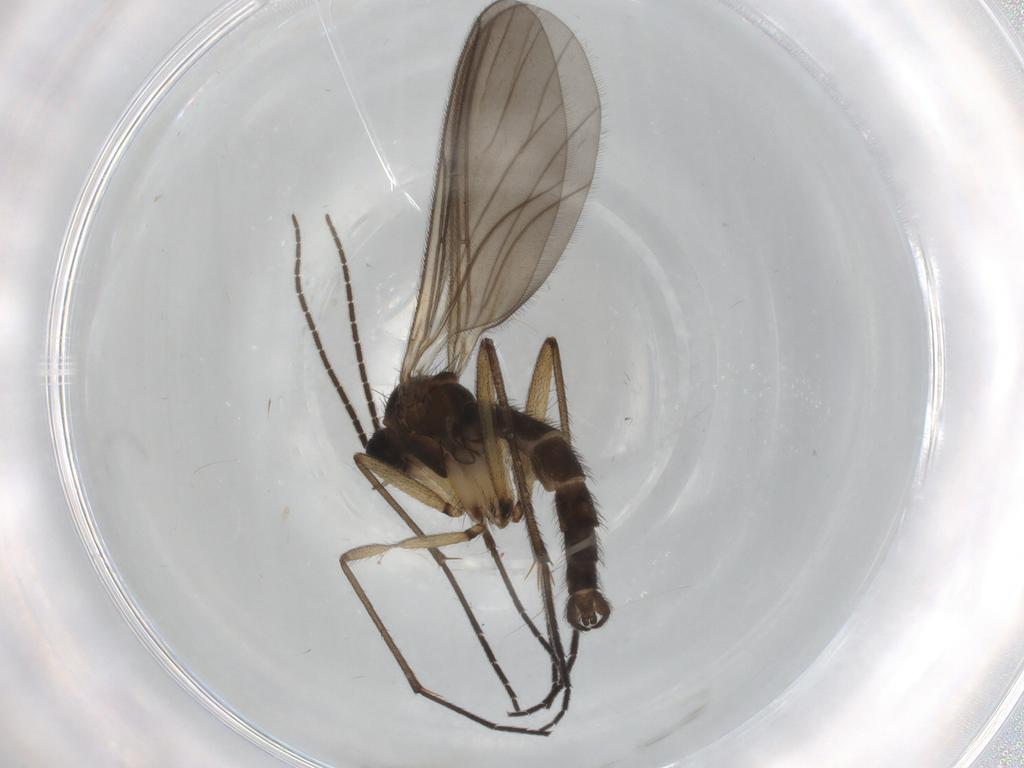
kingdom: Animalia
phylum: Arthropoda
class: Insecta
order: Diptera
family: Sciaridae
